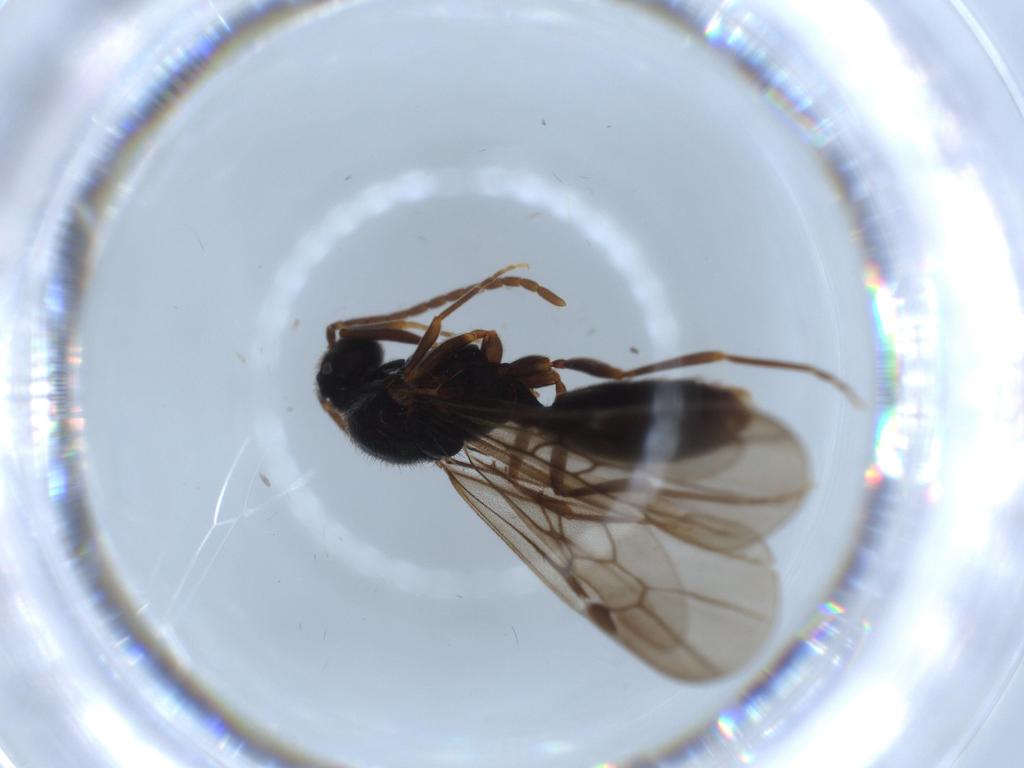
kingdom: Animalia
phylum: Arthropoda
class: Insecta
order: Hymenoptera
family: Formicidae
